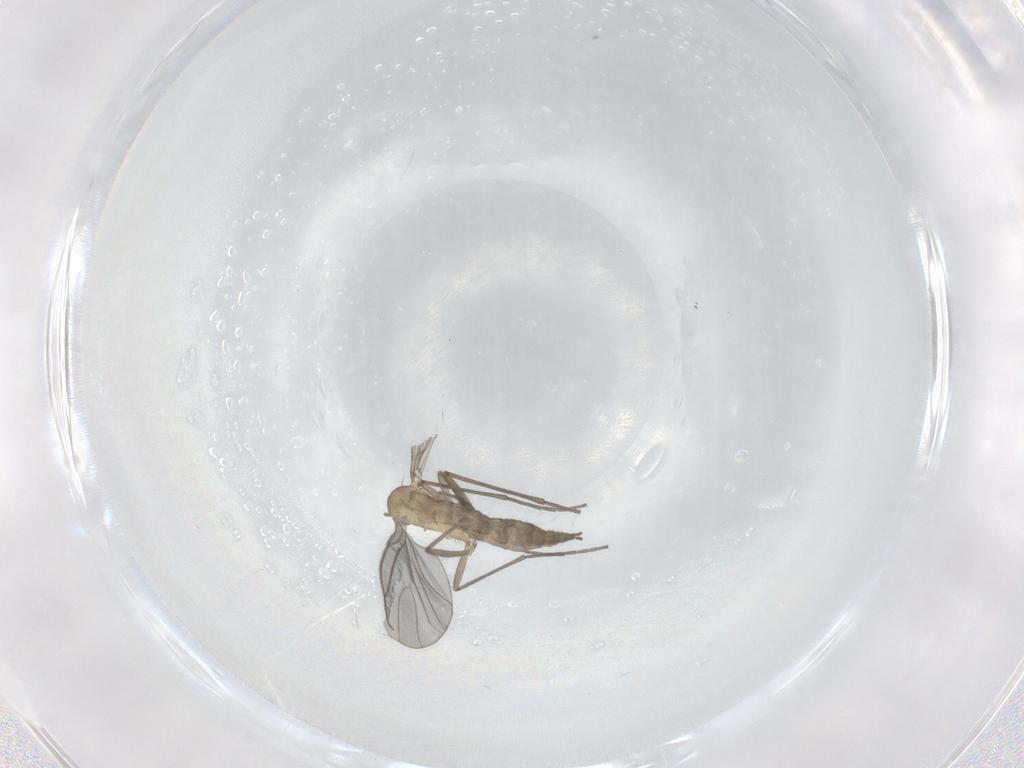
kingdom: Animalia
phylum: Arthropoda
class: Insecta
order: Diptera
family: Sciaridae
